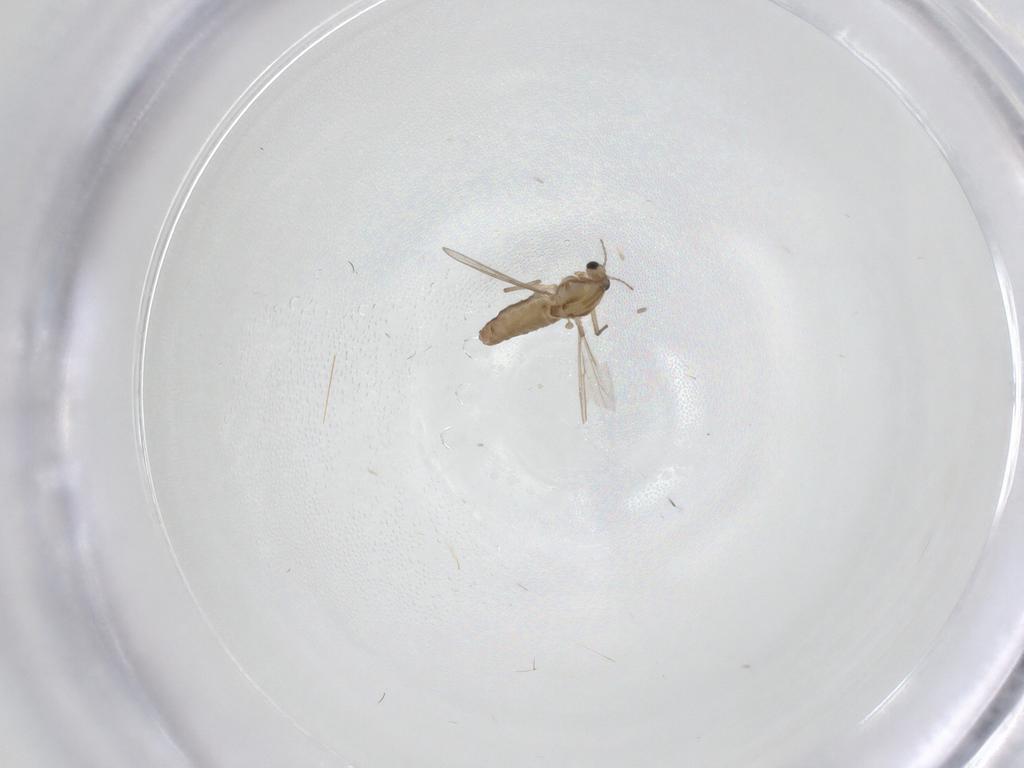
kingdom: Animalia
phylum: Arthropoda
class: Insecta
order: Diptera
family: Chironomidae
